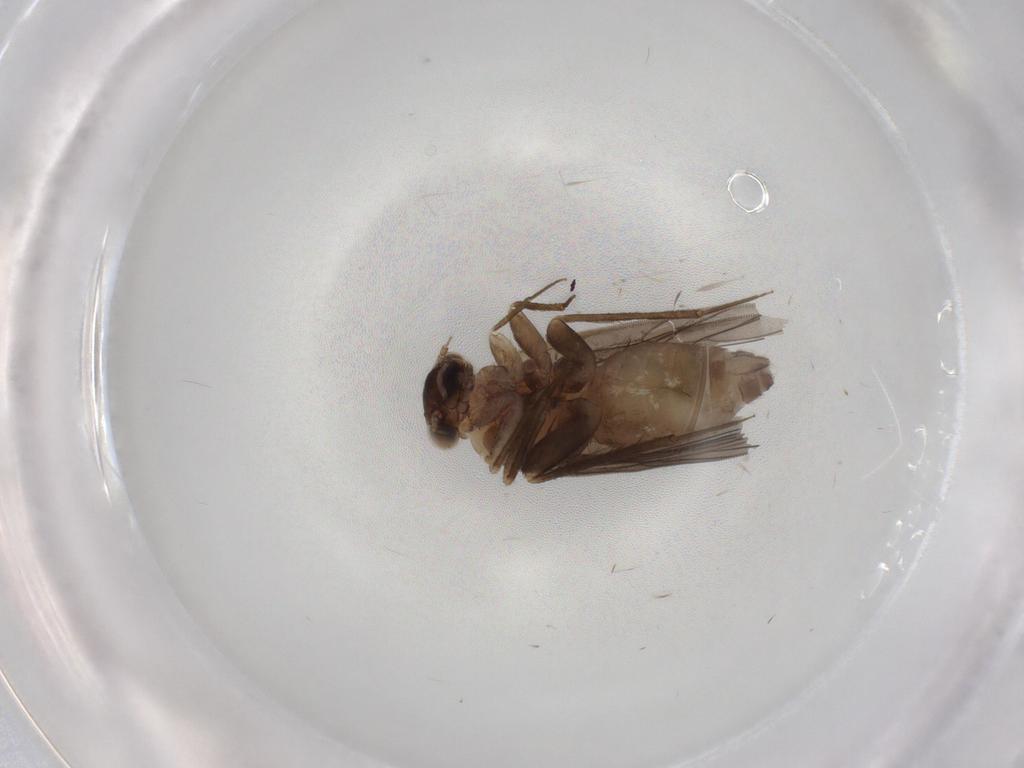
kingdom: Animalia
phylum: Arthropoda
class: Insecta
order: Psocodea
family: Lepidopsocidae
